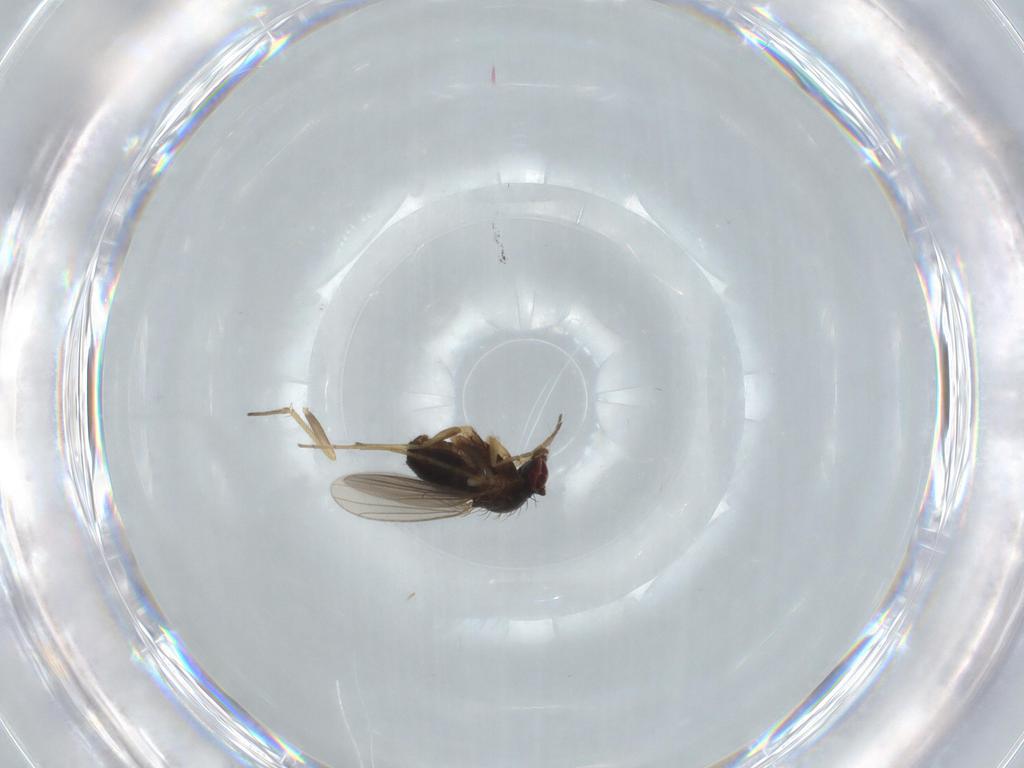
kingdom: Animalia
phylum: Arthropoda
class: Insecta
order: Diptera
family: Dolichopodidae
